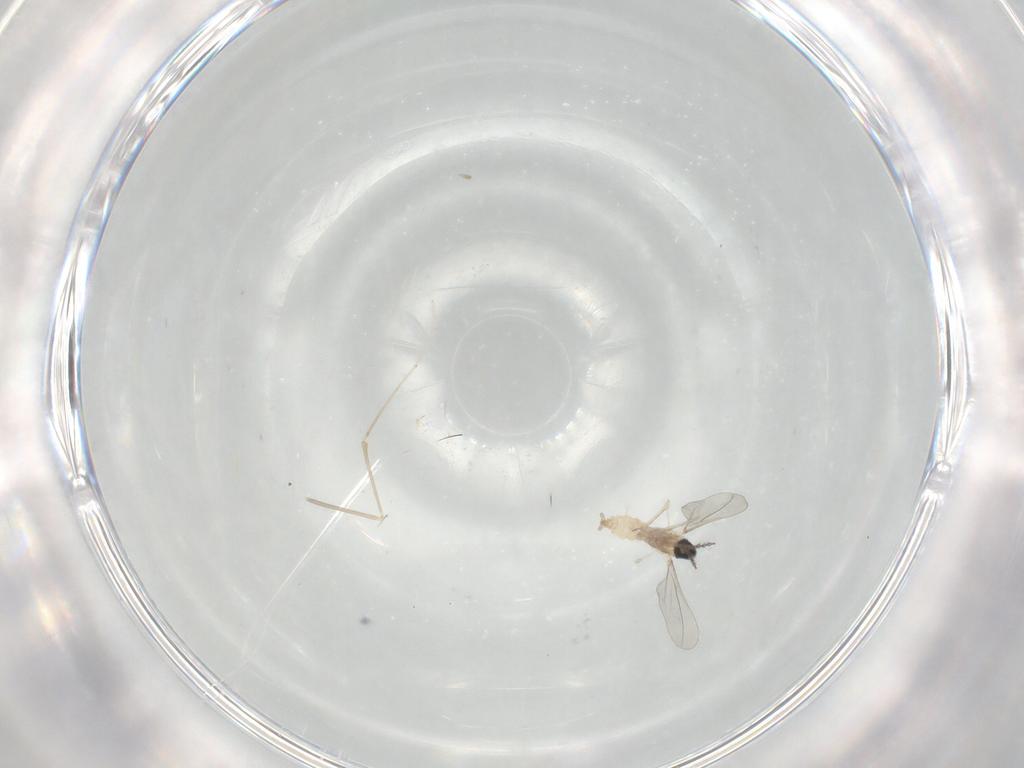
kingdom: Animalia
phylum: Arthropoda
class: Insecta
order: Diptera
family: Cecidomyiidae
